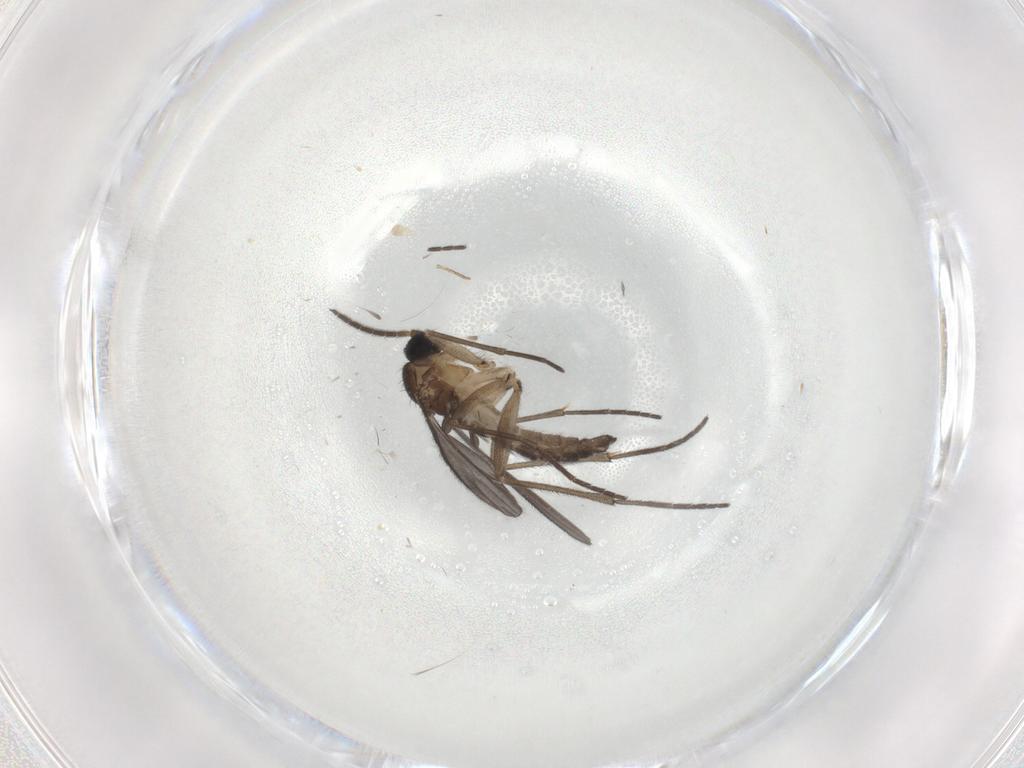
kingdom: Animalia
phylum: Arthropoda
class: Insecta
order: Diptera
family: Sciaridae
